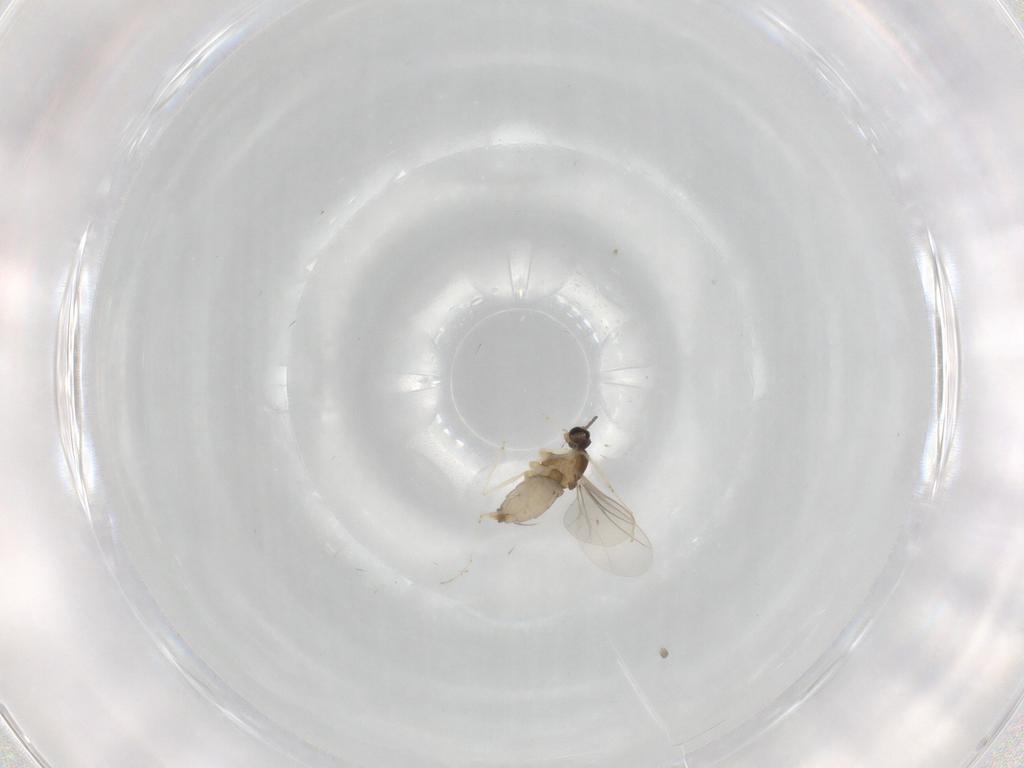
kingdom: Animalia
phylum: Arthropoda
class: Insecta
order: Diptera
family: Cecidomyiidae
